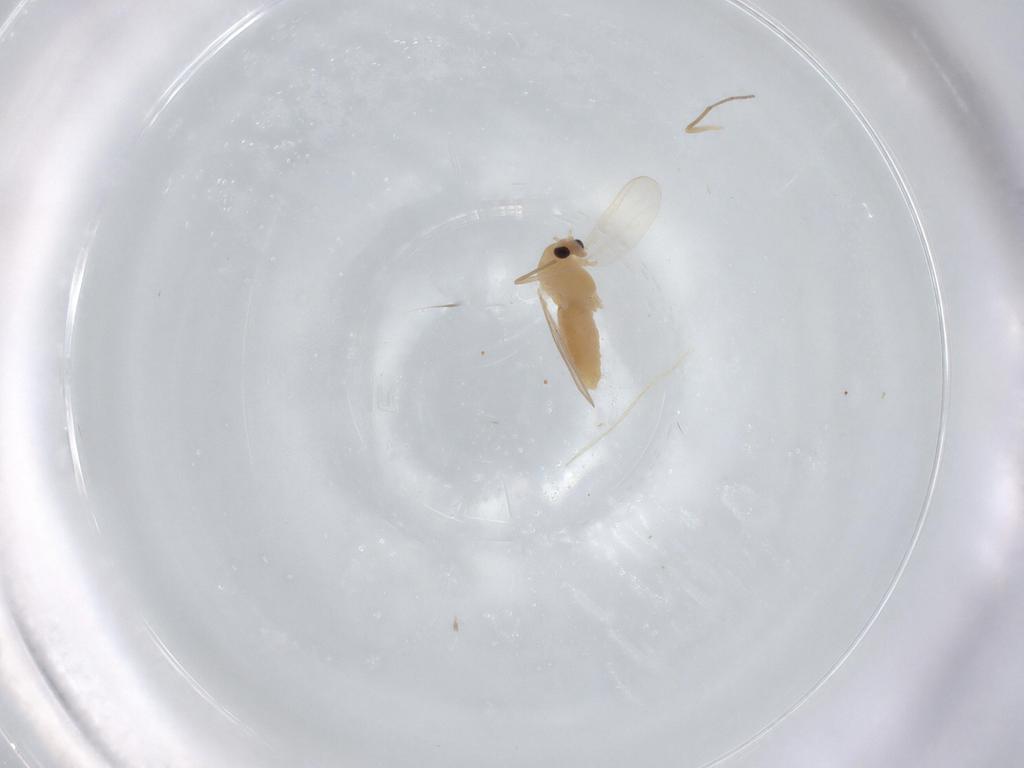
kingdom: Animalia
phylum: Arthropoda
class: Insecta
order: Diptera
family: Chironomidae
